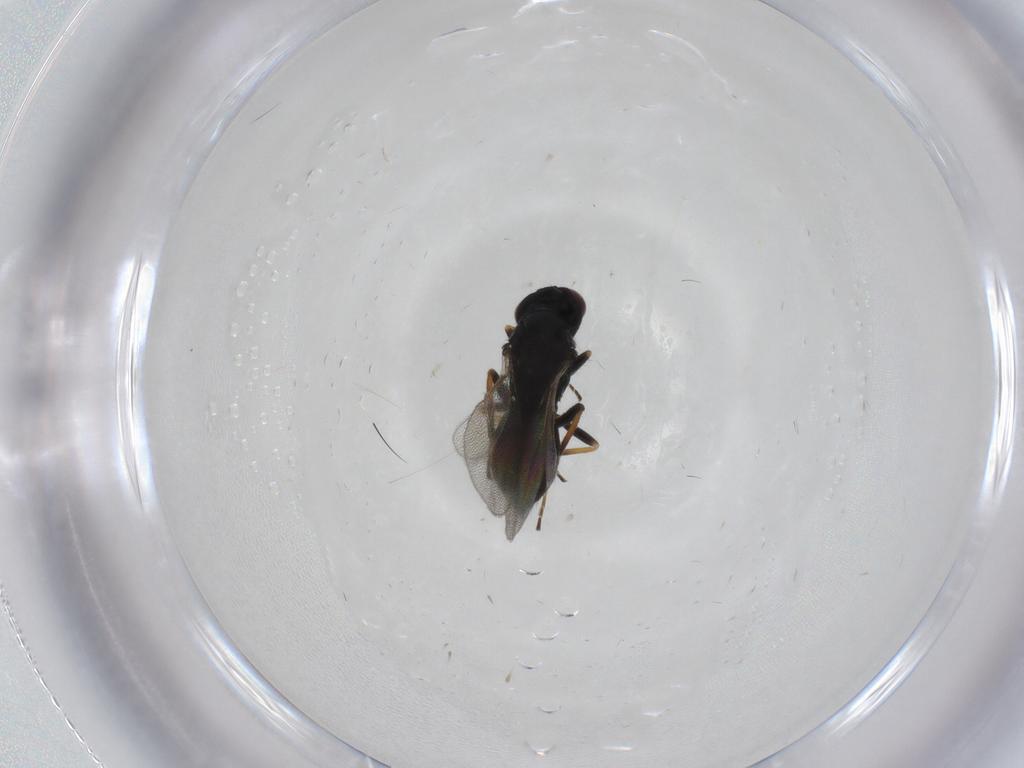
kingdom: Animalia
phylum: Arthropoda
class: Insecta
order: Hymenoptera
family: Eulophidae
